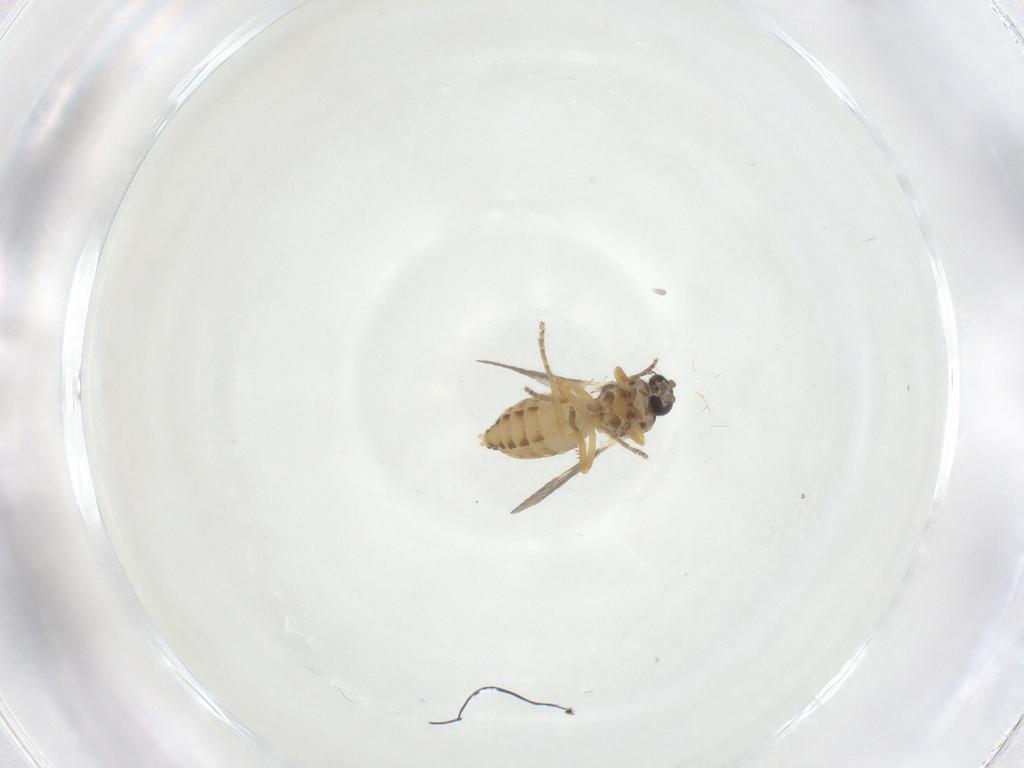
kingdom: Animalia
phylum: Arthropoda
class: Insecta
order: Diptera
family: Ceratopogonidae
